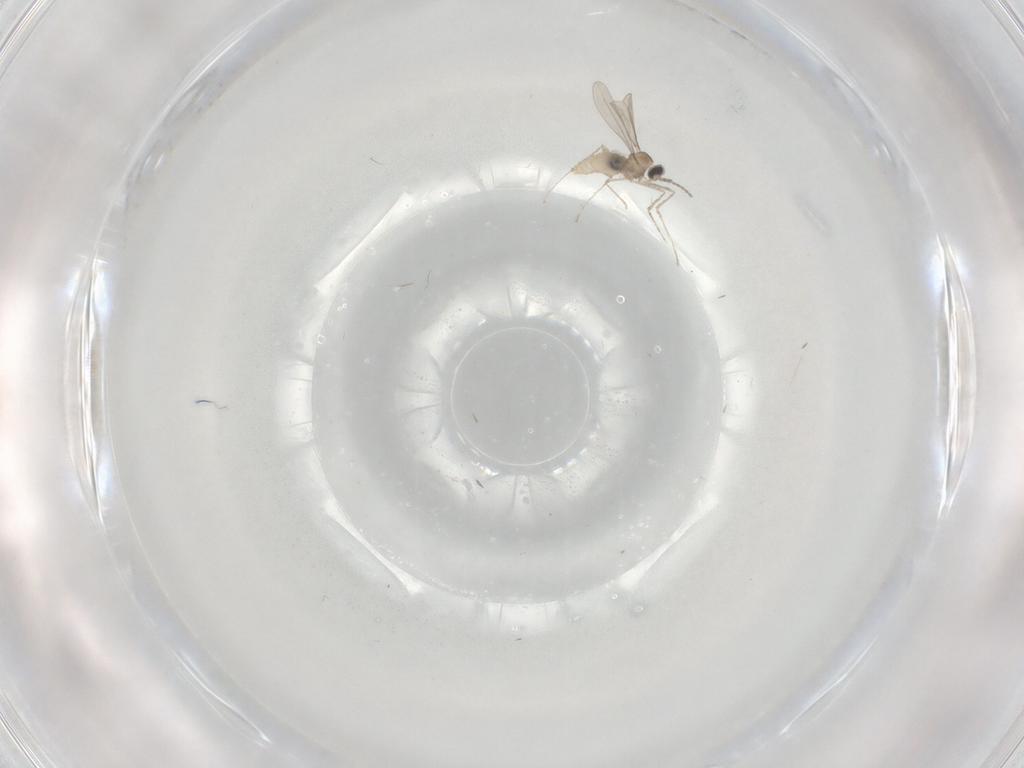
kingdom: Animalia
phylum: Arthropoda
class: Insecta
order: Diptera
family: Cecidomyiidae
